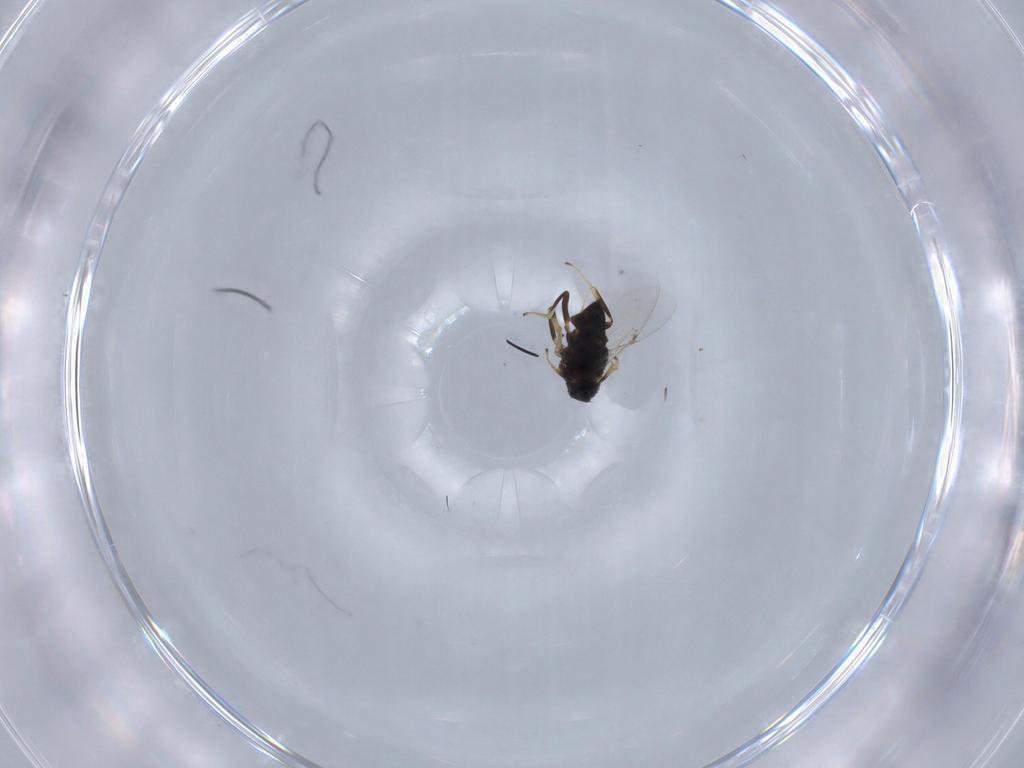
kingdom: Animalia
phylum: Arthropoda
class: Insecta
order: Hymenoptera
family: Encyrtidae
